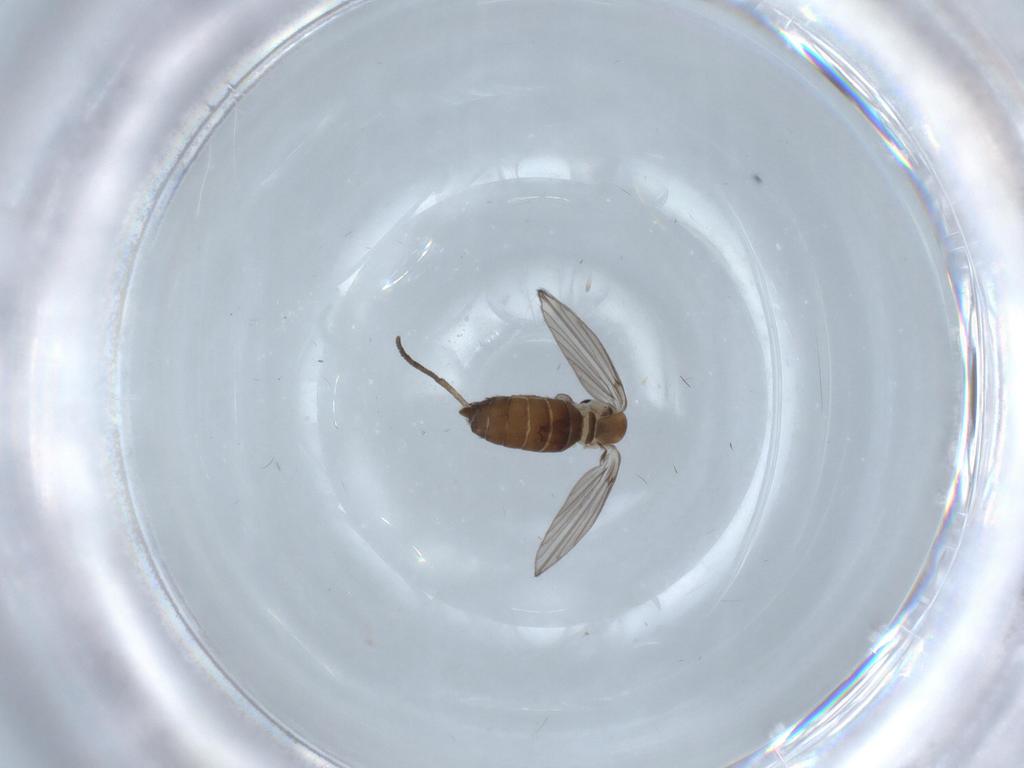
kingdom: Animalia
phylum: Arthropoda
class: Insecta
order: Diptera
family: Psychodidae
